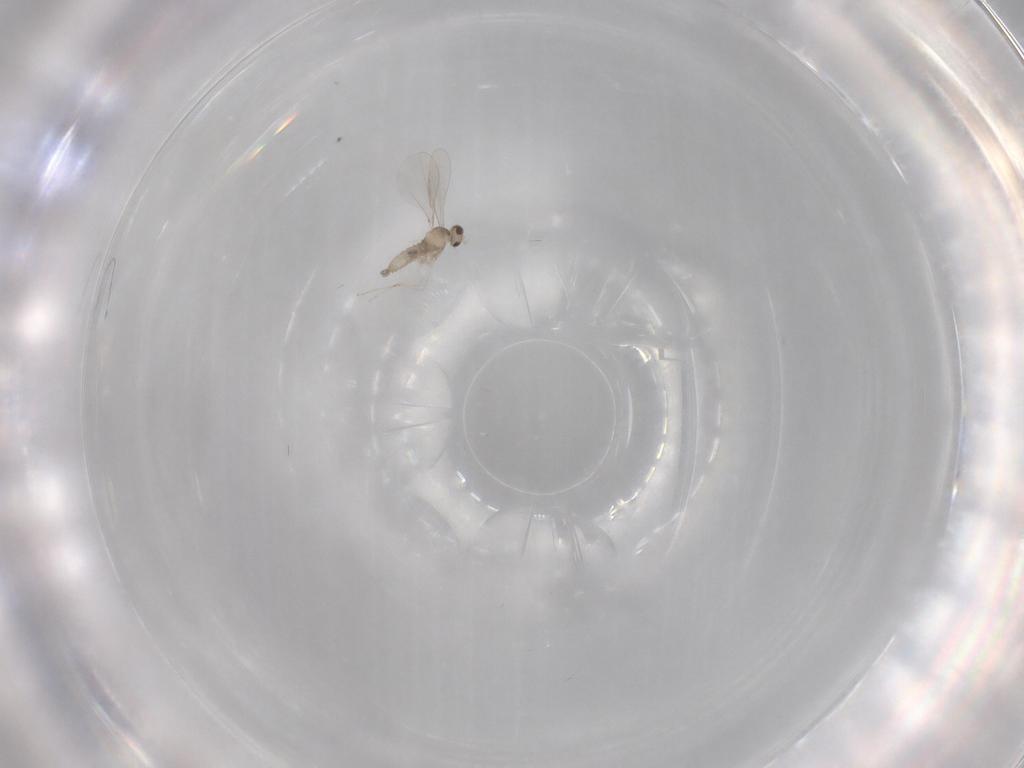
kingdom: Animalia
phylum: Arthropoda
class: Insecta
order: Diptera
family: Cecidomyiidae
